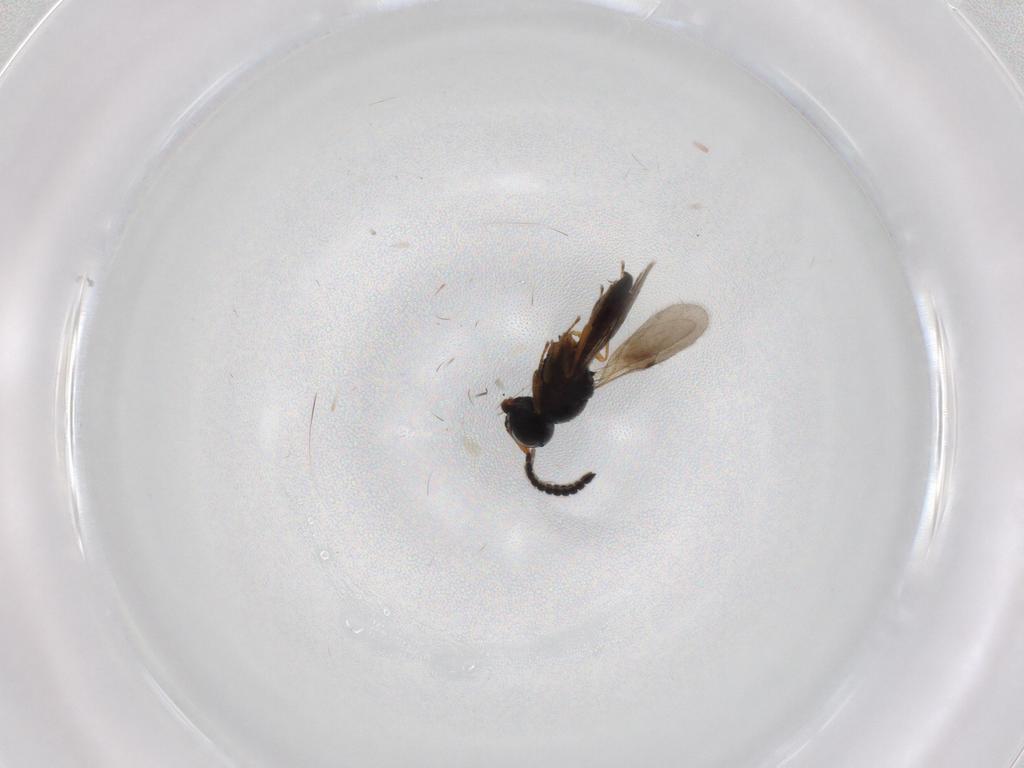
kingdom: Animalia
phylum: Arthropoda
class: Insecta
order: Hymenoptera
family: Scelionidae
